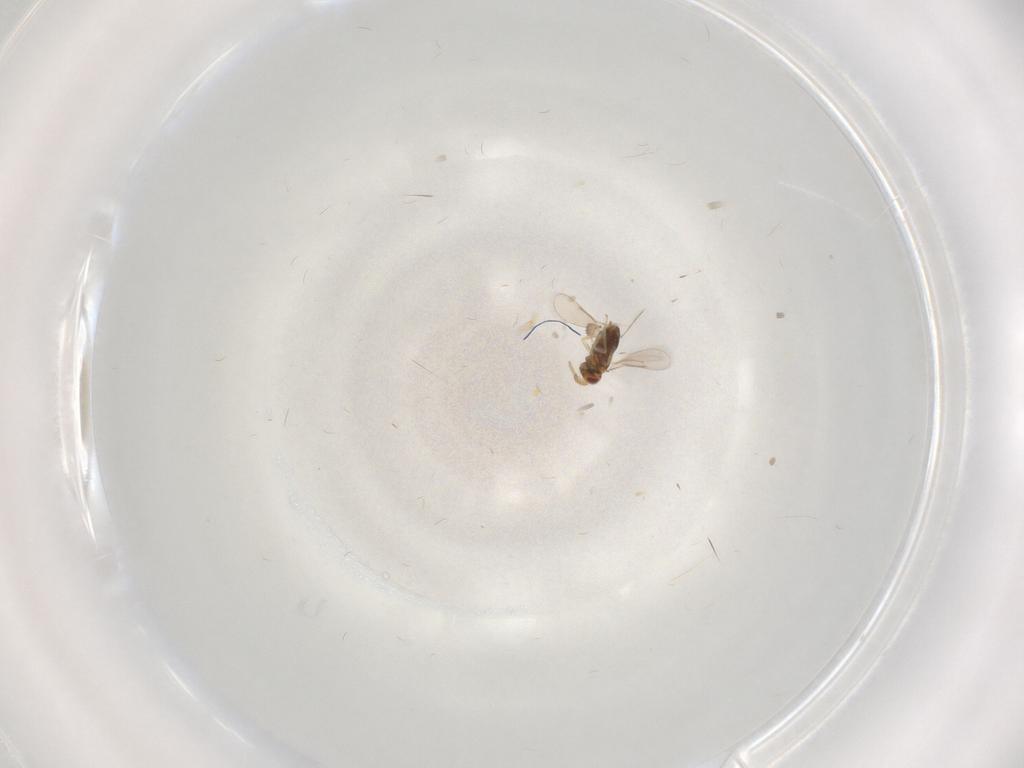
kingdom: Animalia
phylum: Arthropoda
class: Insecta
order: Hymenoptera
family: Aphelinidae
